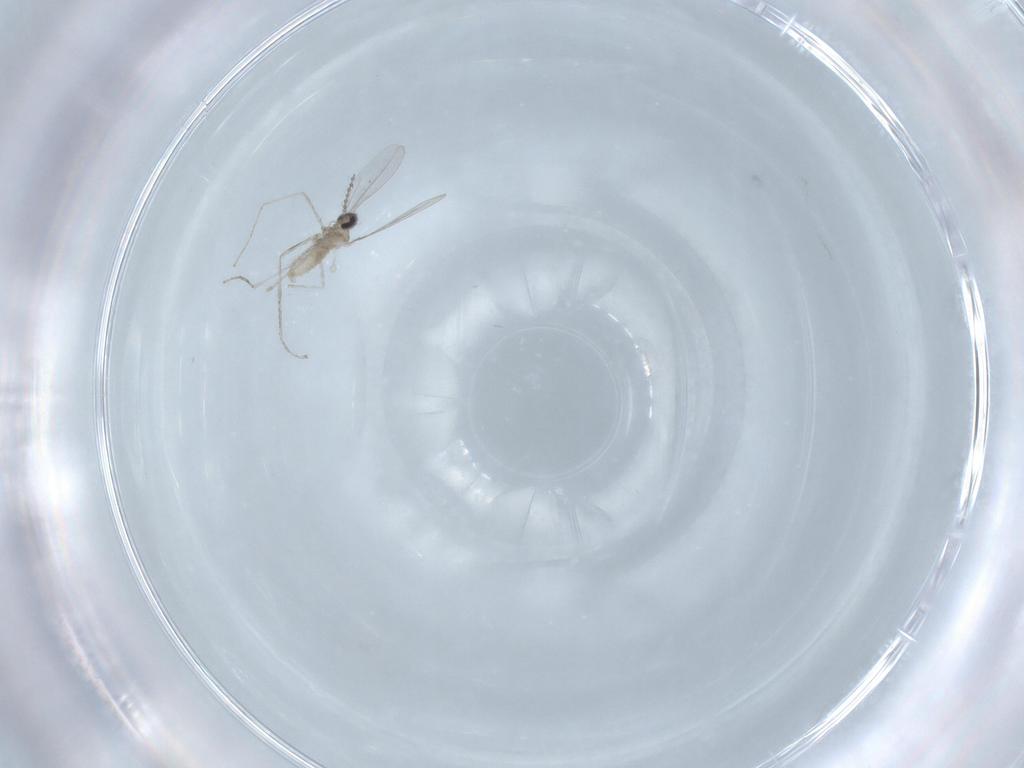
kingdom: Animalia
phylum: Arthropoda
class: Insecta
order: Diptera
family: Cecidomyiidae
